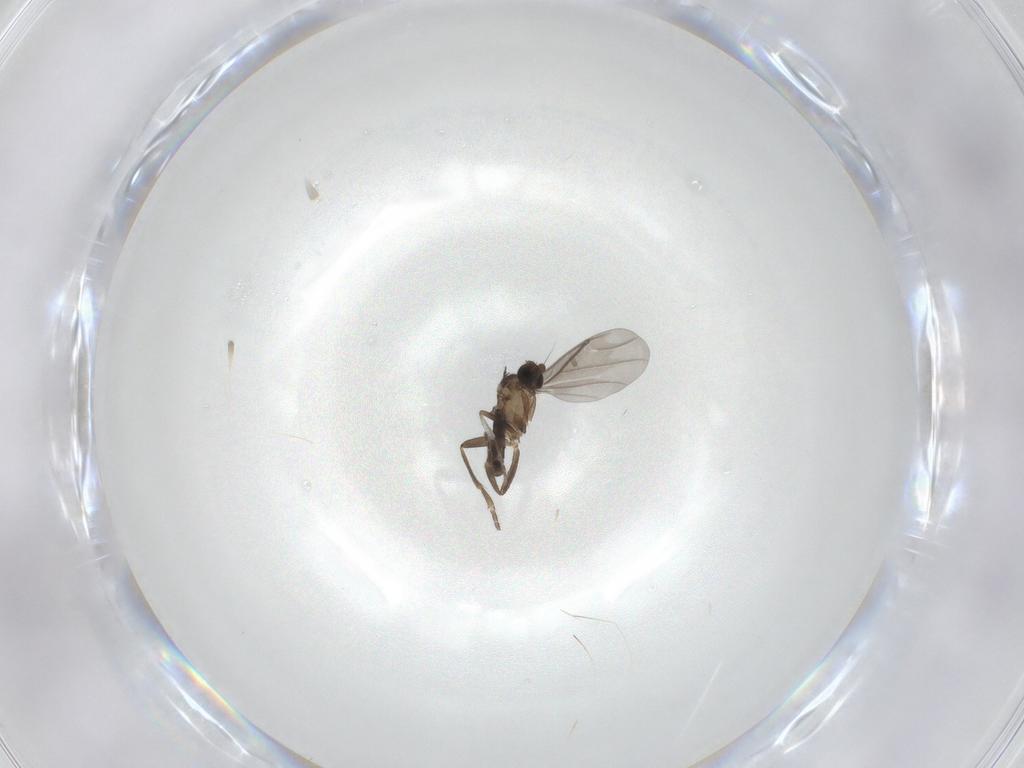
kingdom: Animalia
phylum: Arthropoda
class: Insecta
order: Diptera
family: Phoridae
